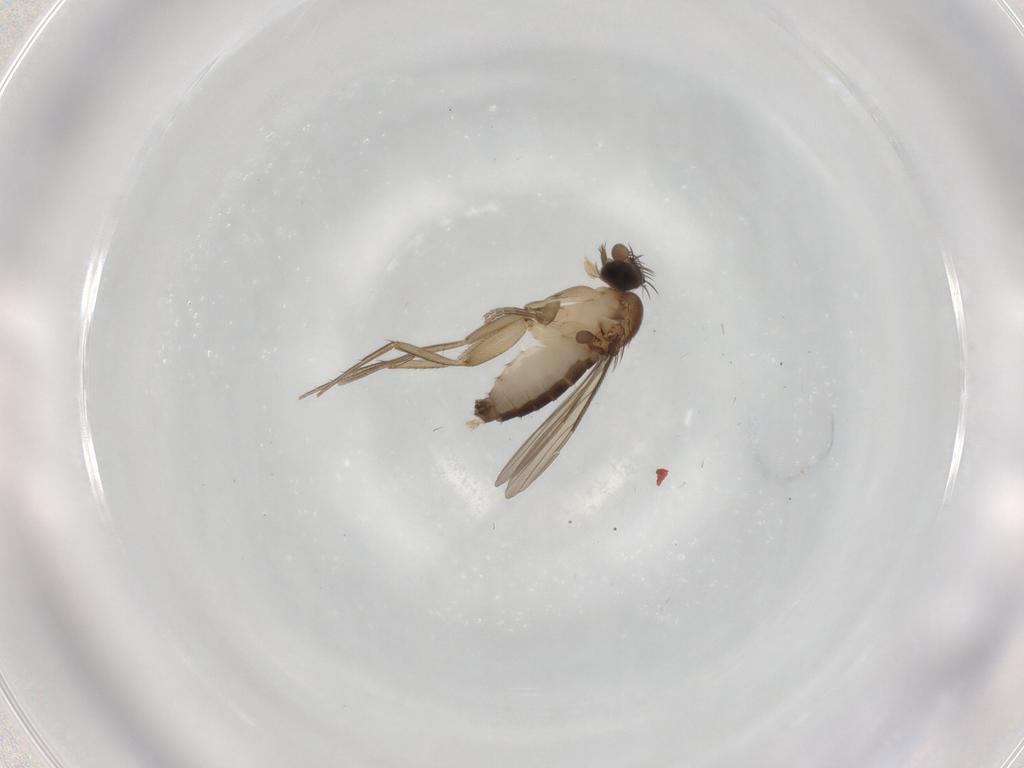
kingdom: Animalia
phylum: Arthropoda
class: Insecta
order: Diptera
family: Phoridae
